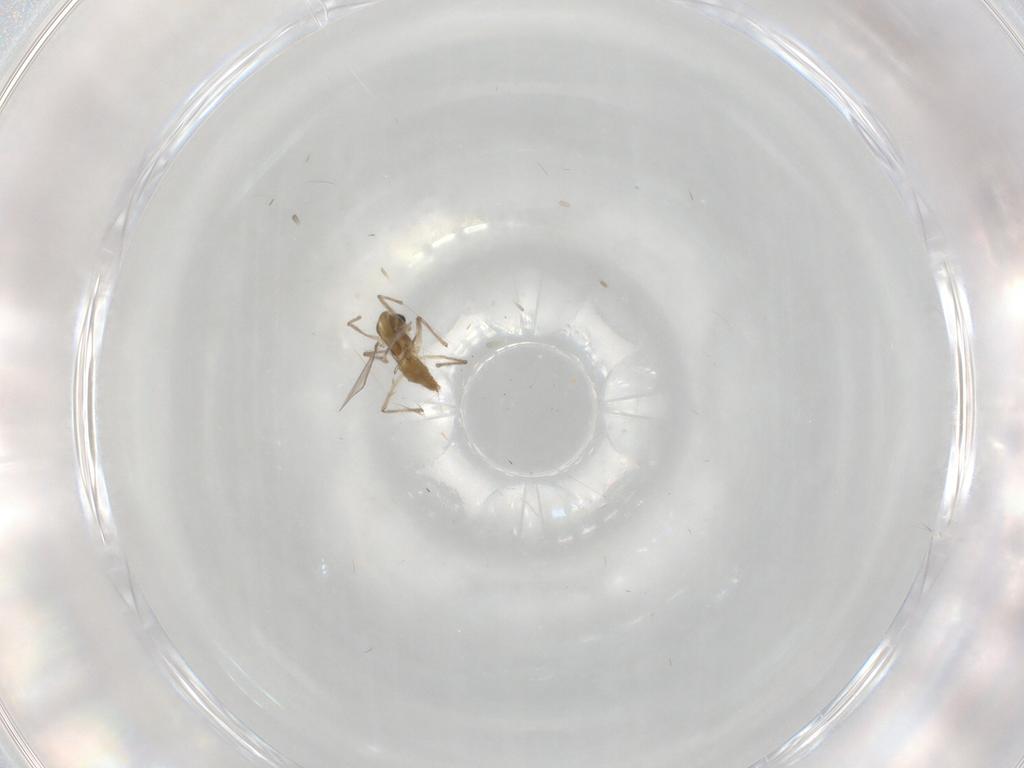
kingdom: Animalia
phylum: Arthropoda
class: Insecta
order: Diptera
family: Chironomidae
